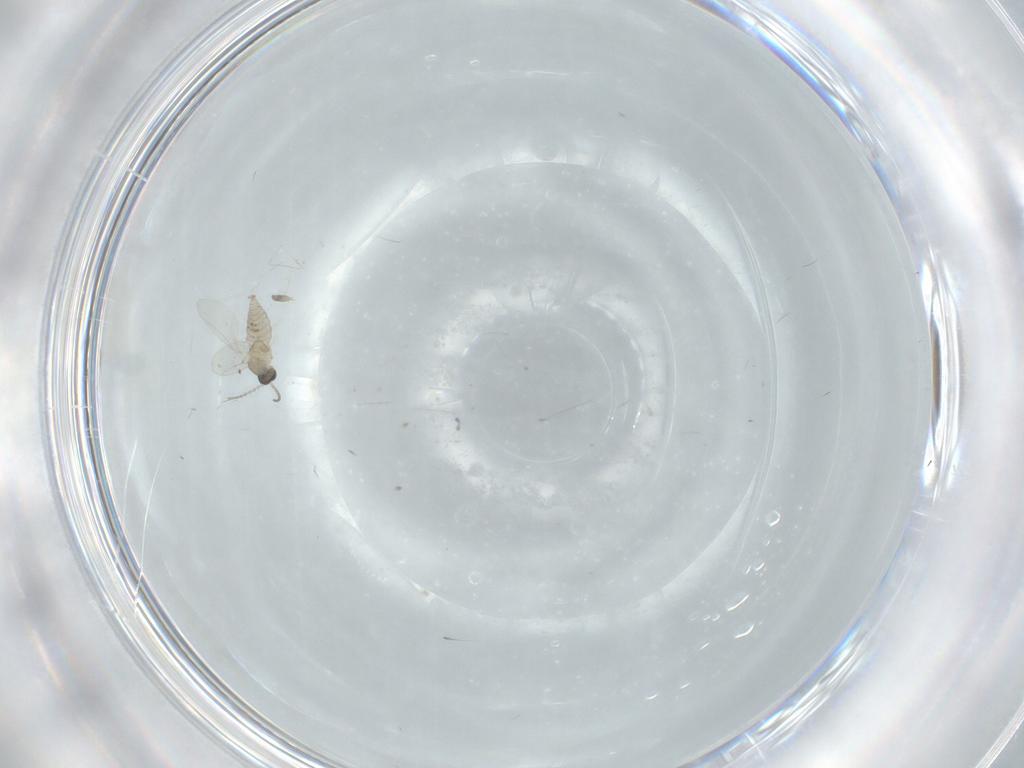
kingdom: Animalia
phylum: Arthropoda
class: Insecta
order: Diptera
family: Cecidomyiidae
